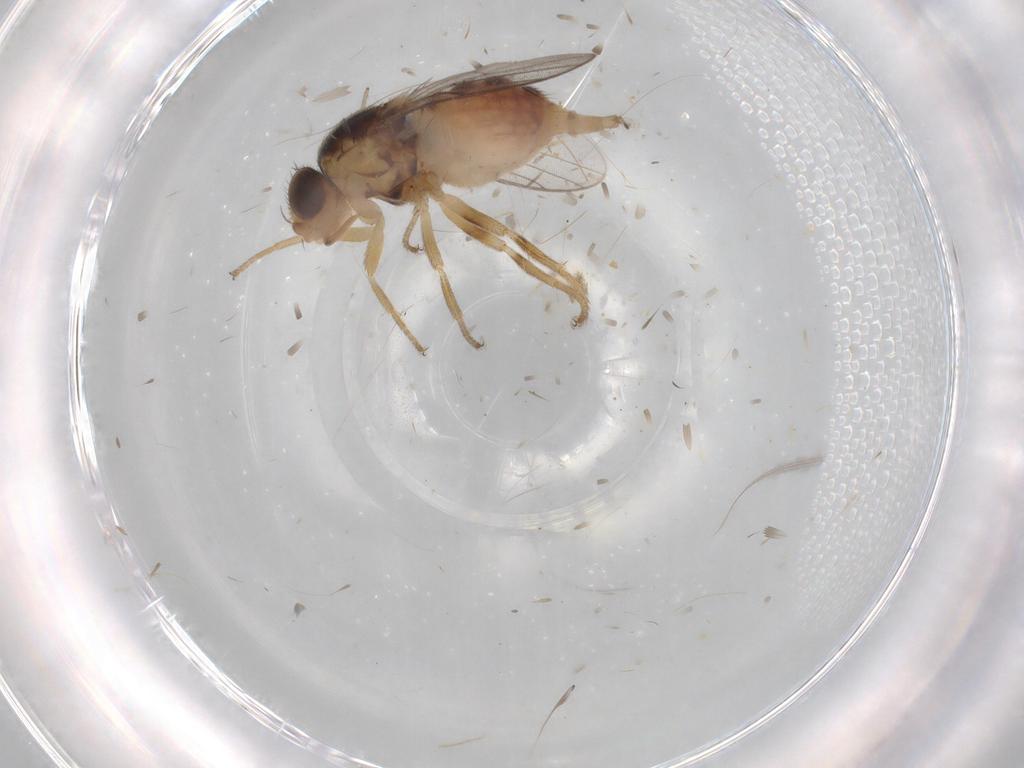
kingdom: Animalia
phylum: Arthropoda
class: Insecta
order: Diptera
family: Chloropidae
